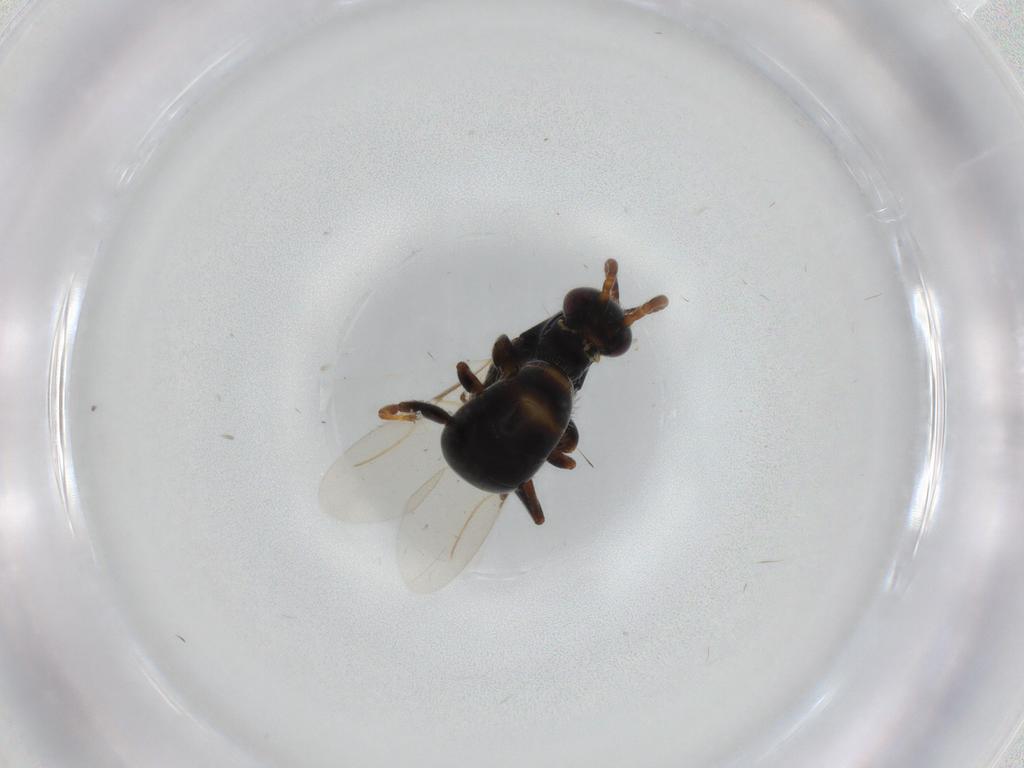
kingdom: Animalia
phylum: Arthropoda
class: Insecta
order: Hymenoptera
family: Bethylidae
